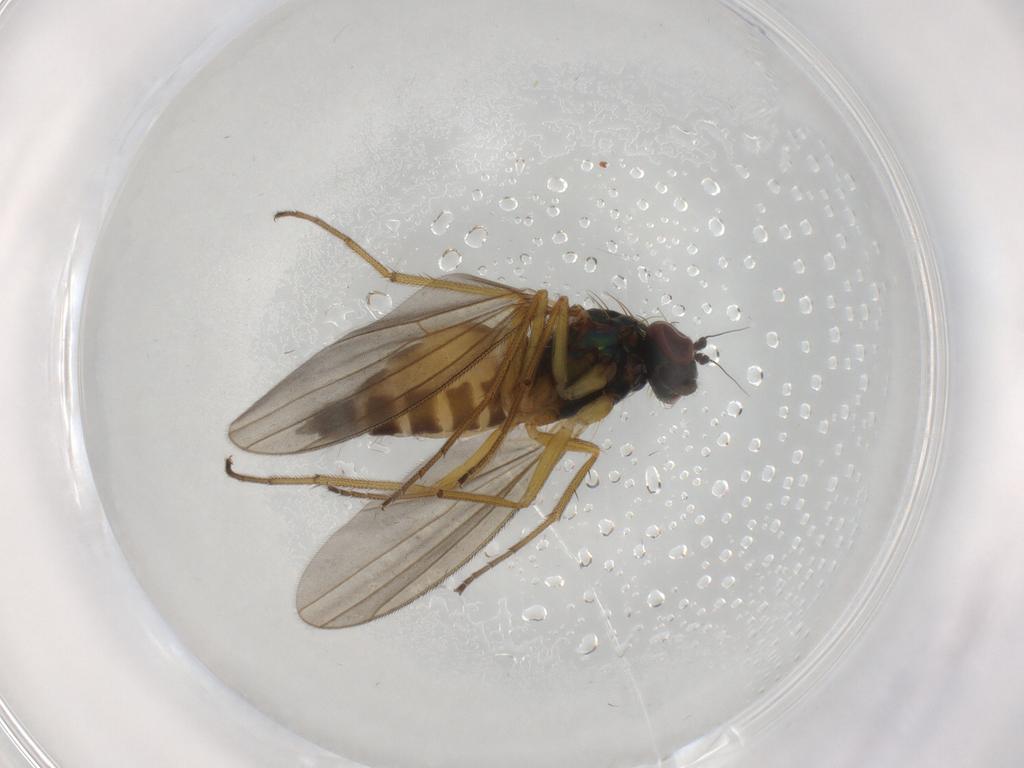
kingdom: Animalia
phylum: Arthropoda
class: Insecta
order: Diptera
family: Dolichopodidae
